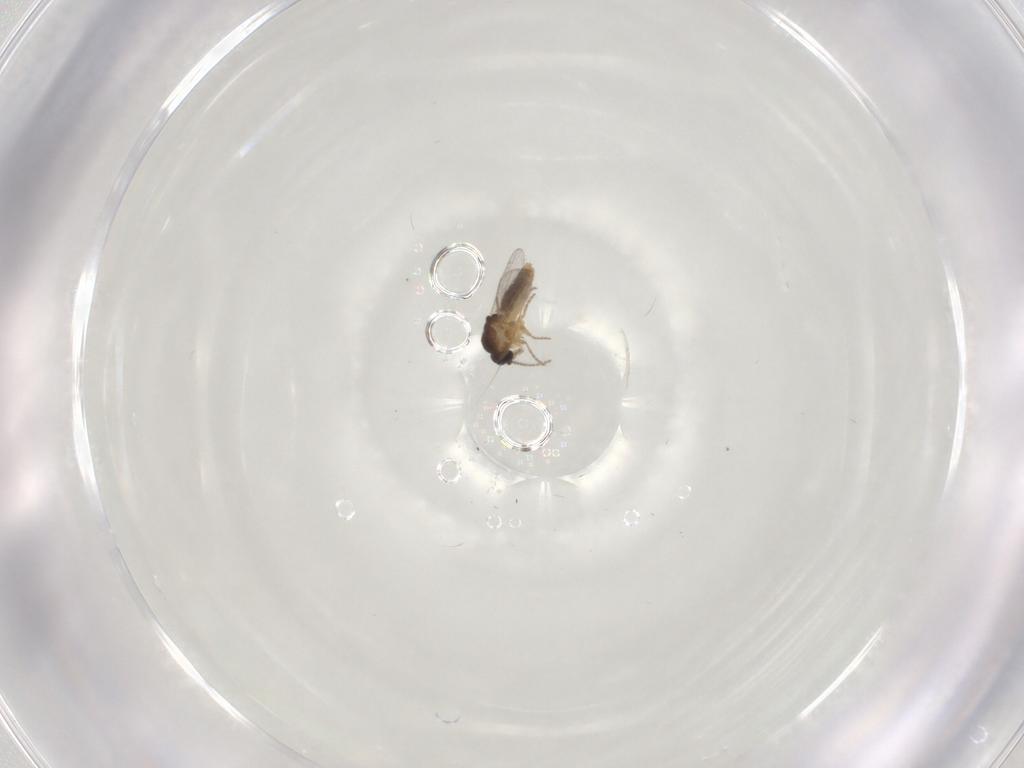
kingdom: Animalia
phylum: Arthropoda
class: Insecta
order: Diptera
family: Ceratopogonidae
